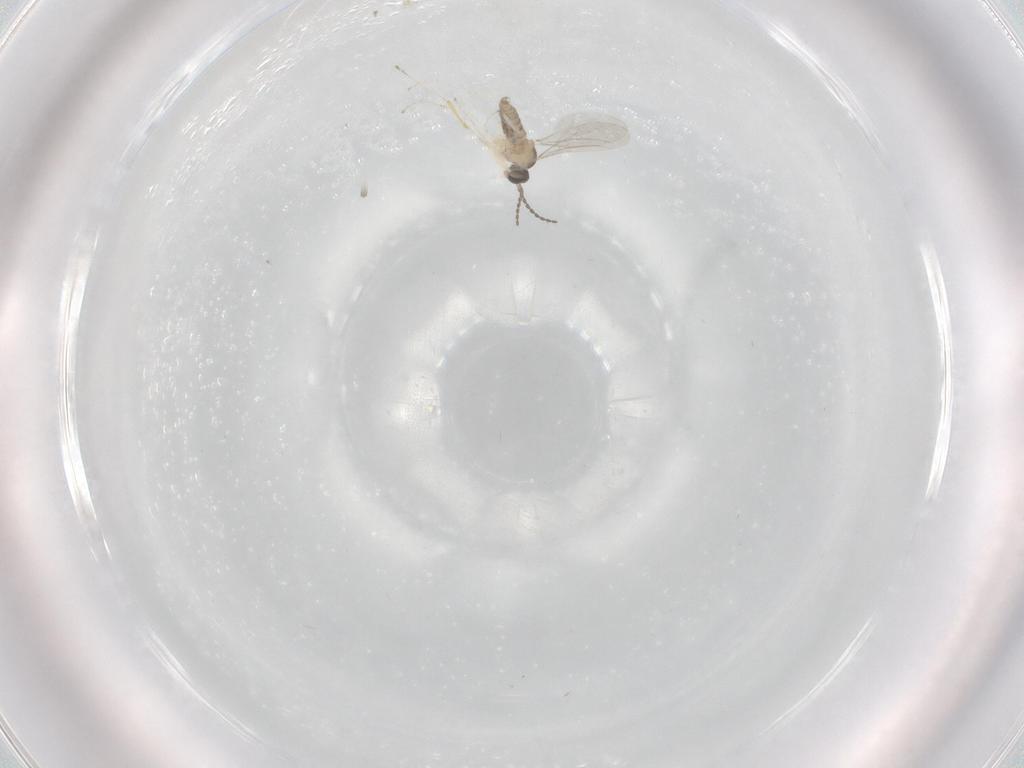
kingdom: Animalia
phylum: Arthropoda
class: Insecta
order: Diptera
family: Cecidomyiidae
